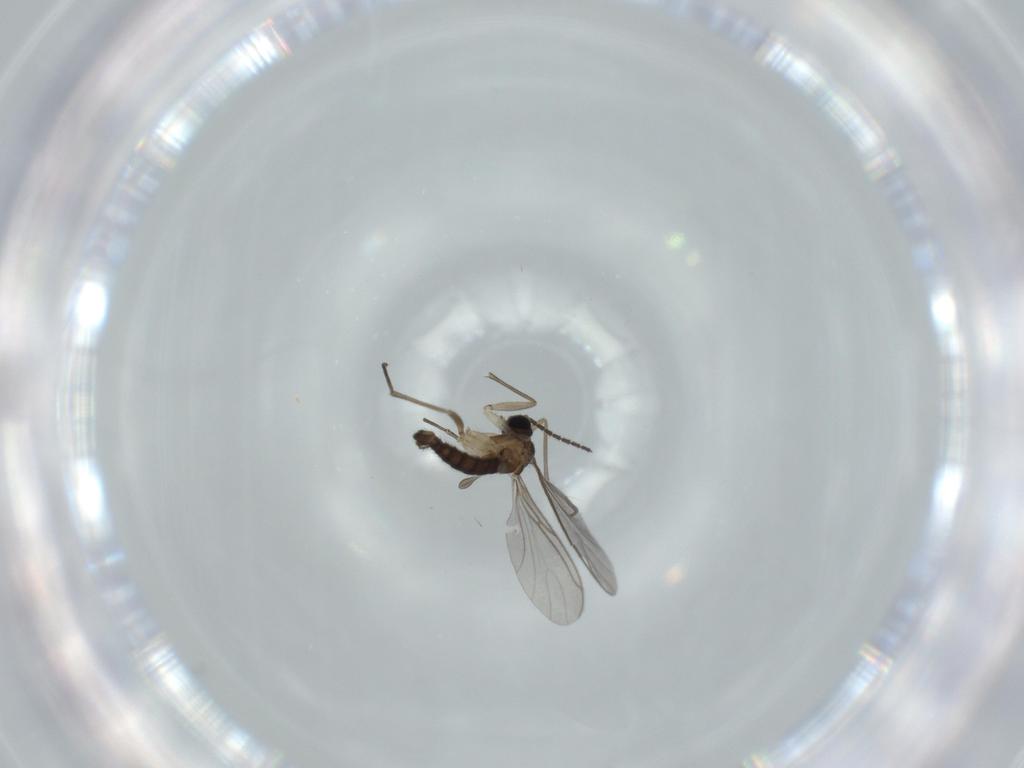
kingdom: Animalia
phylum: Arthropoda
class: Insecta
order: Diptera
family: Sciaridae
